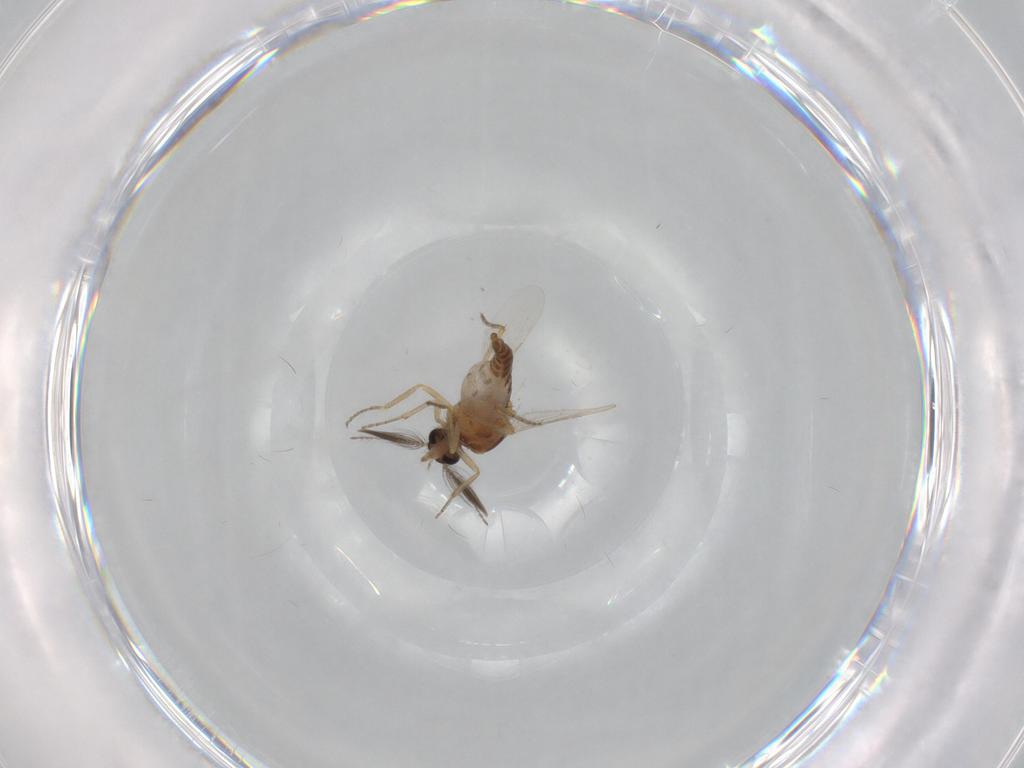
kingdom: Animalia
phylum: Arthropoda
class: Insecta
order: Diptera
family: Ceratopogonidae
